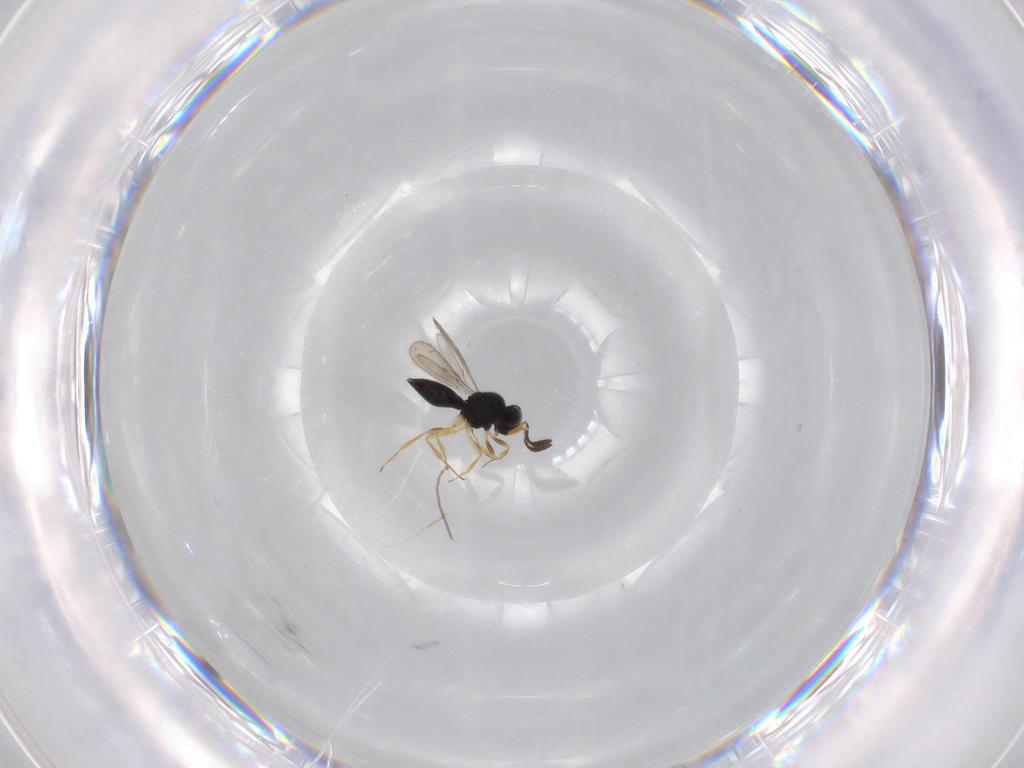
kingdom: Animalia
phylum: Arthropoda
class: Insecta
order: Hymenoptera
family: Scelionidae
